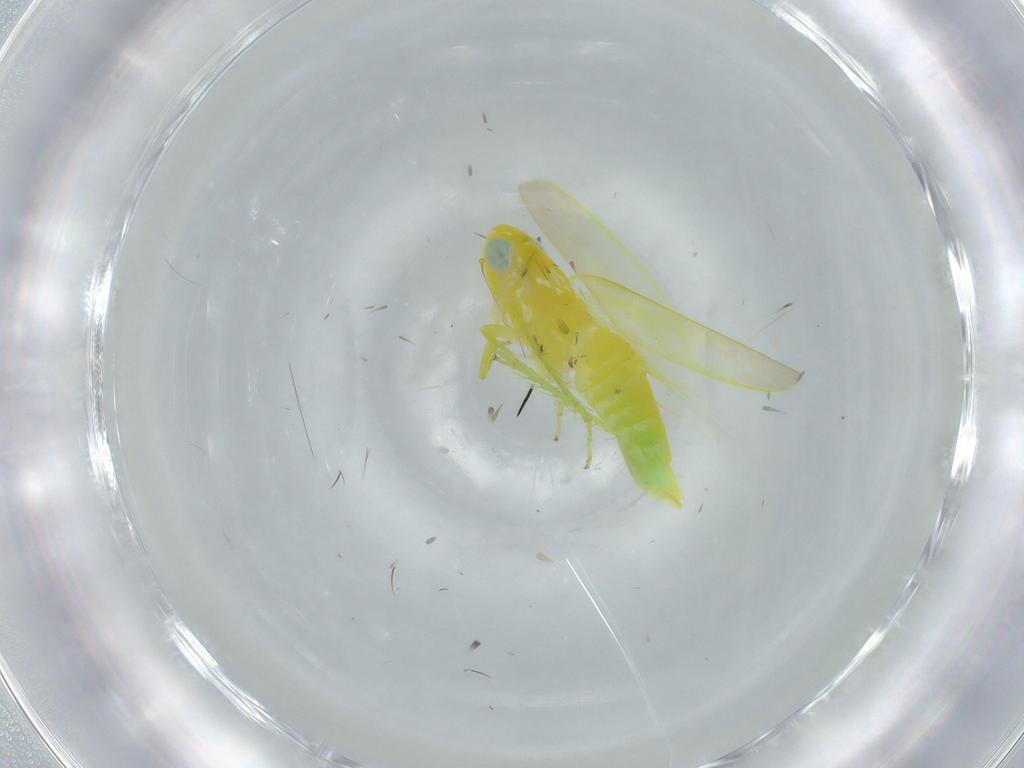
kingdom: Animalia
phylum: Arthropoda
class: Insecta
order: Hemiptera
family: Cicadellidae
